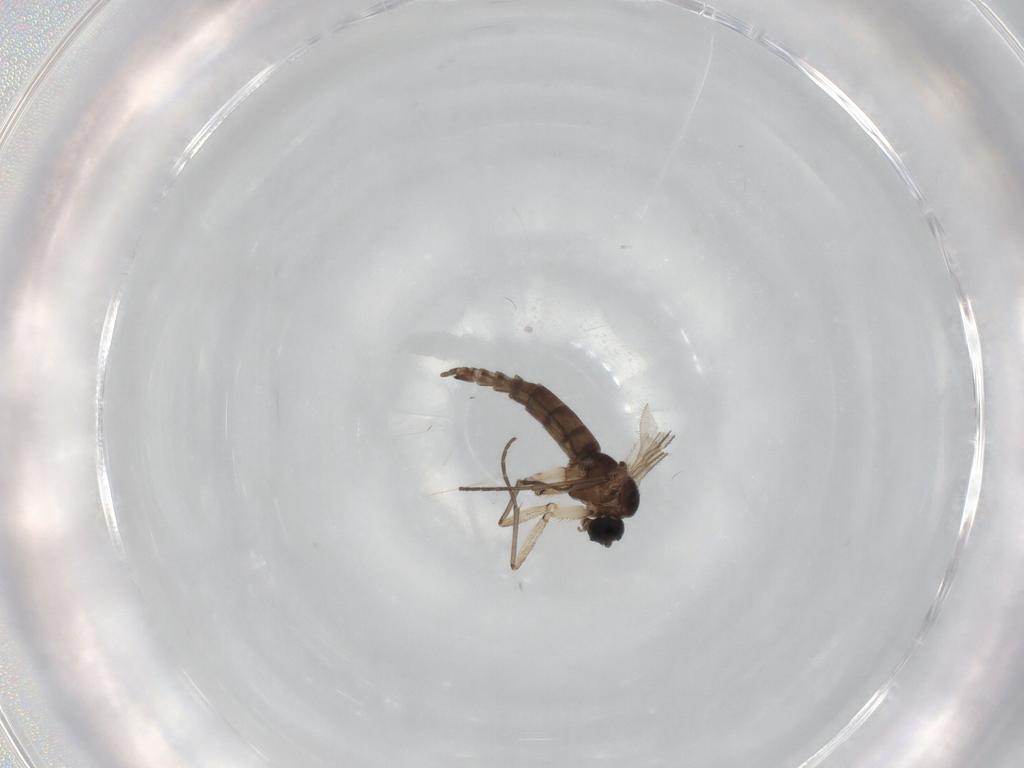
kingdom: Animalia
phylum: Arthropoda
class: Insecta
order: Diptera
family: Sciaridae
